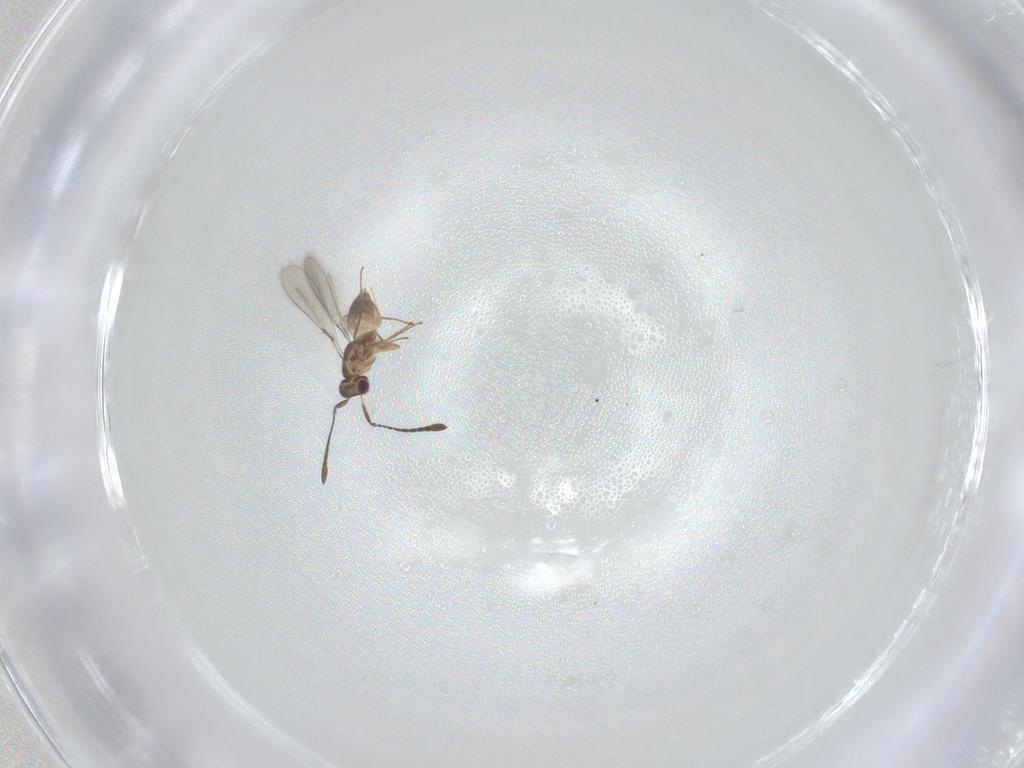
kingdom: Animalia
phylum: Arthropoda
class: Insecta
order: Hymenoptera
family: Mymaridae
